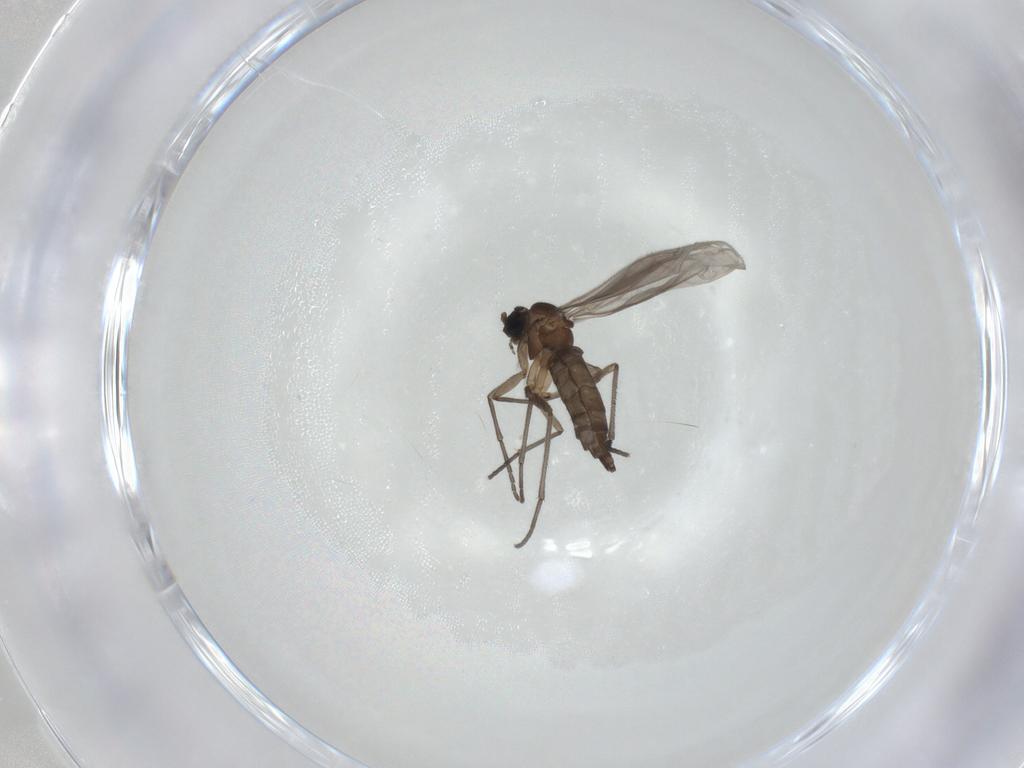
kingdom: Animalia
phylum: Arthropoda
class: Insecta
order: Diptera
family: Sciaridae
